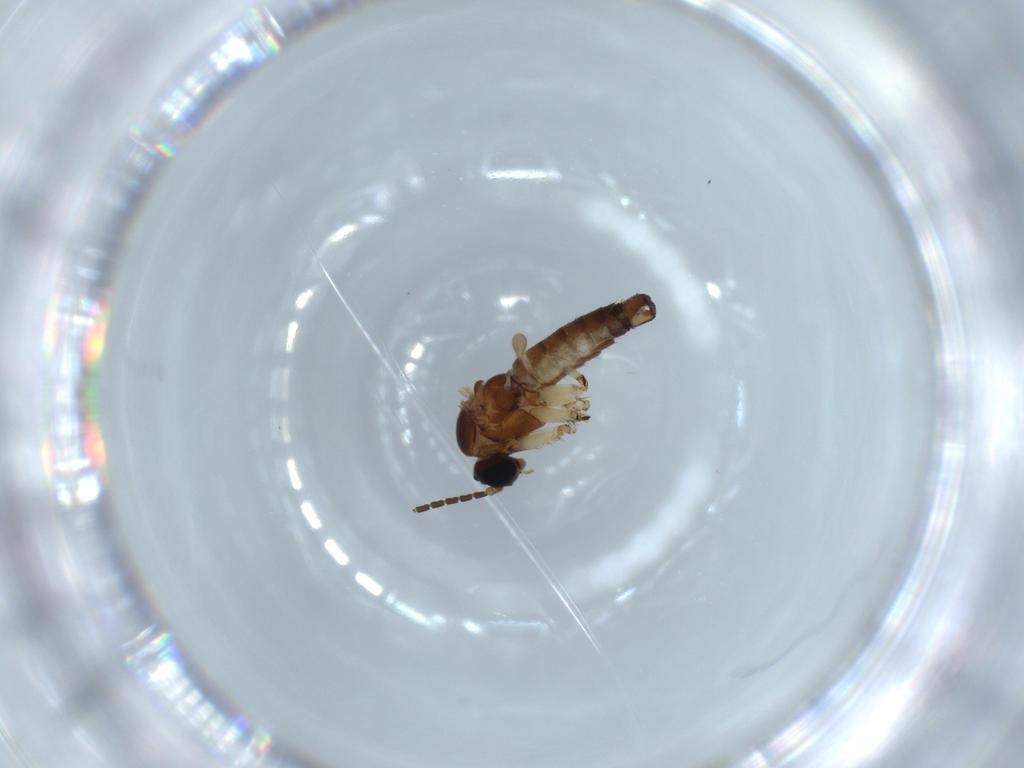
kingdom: Animalia
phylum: Arthropoda
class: Insecta
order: Diptera
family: Sciaridae
